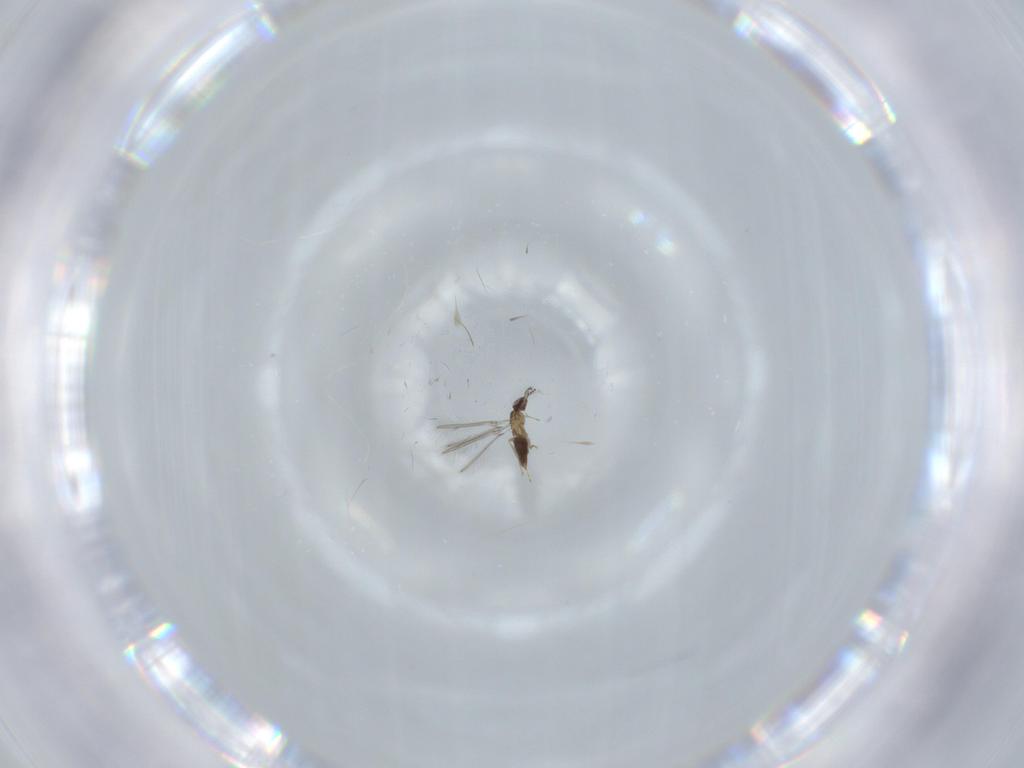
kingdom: Animalia
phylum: Arthropoda
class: Insecta
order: Hymenoptera
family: Mymaridae
